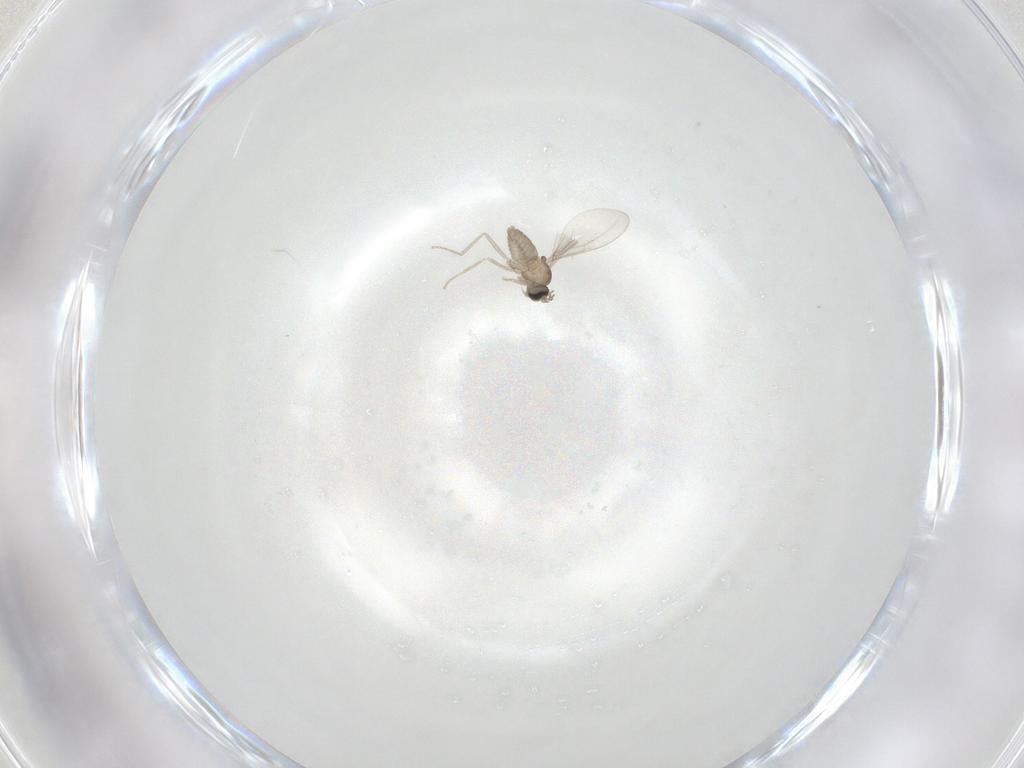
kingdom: Animalia
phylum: Arthropoda
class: Insecta
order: Diptera
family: Cecidomyiidae
